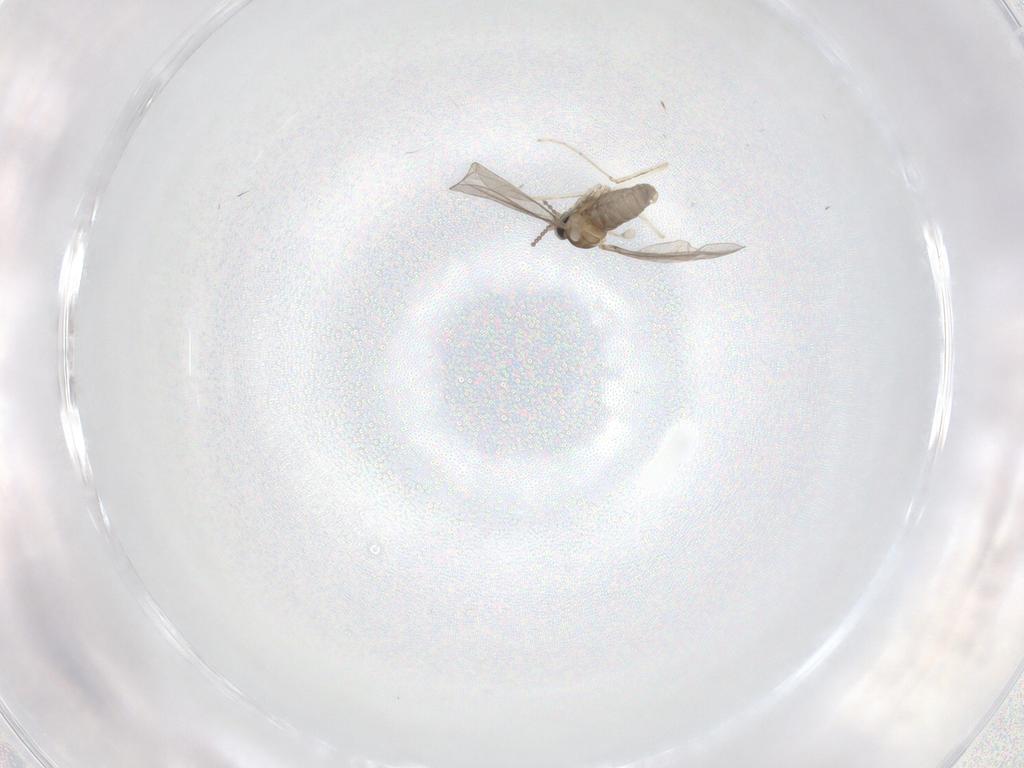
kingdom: Animalia
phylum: Arthropoda
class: Insecta
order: Diptera
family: Cecidomyiidae
